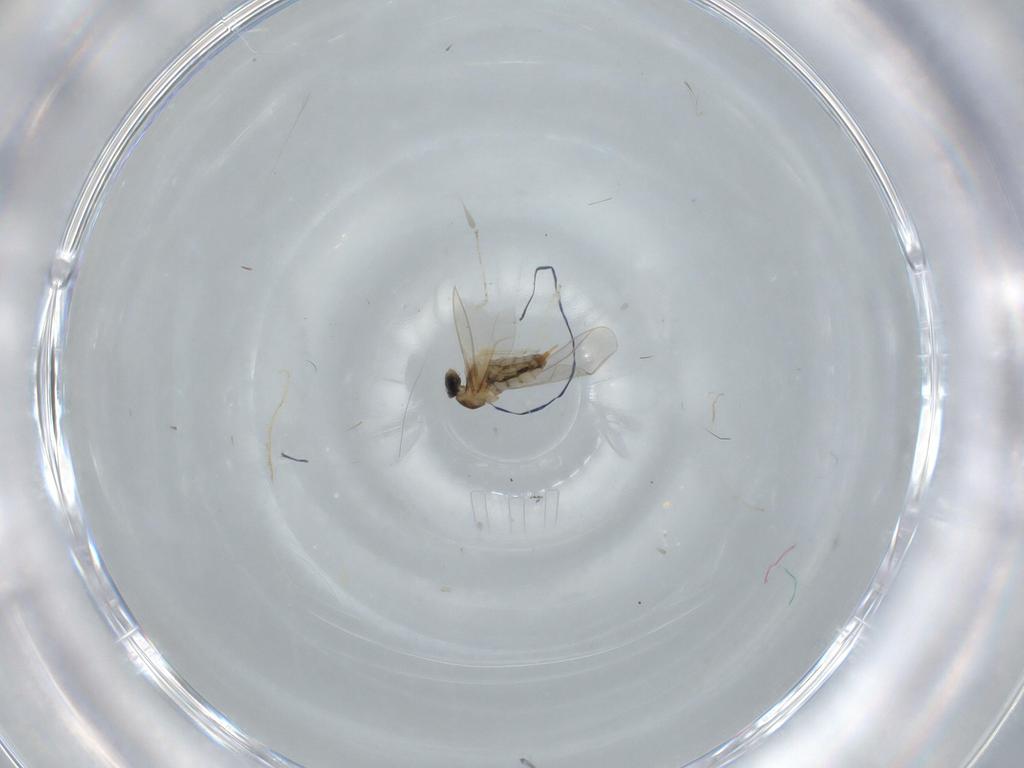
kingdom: Animalia
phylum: Arthropoda
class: Insecta
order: Diptera
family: Cecidomyiidae
